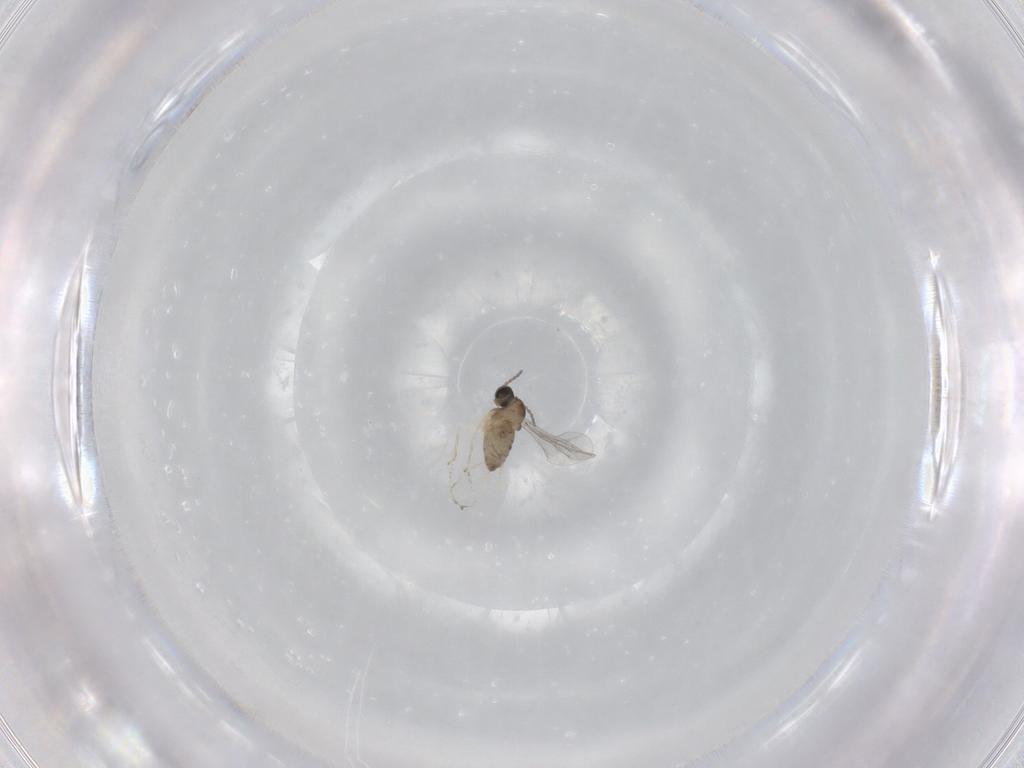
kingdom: Animalia
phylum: Arthropoda
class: Insecta
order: Diptera
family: Cecidomyiidae
